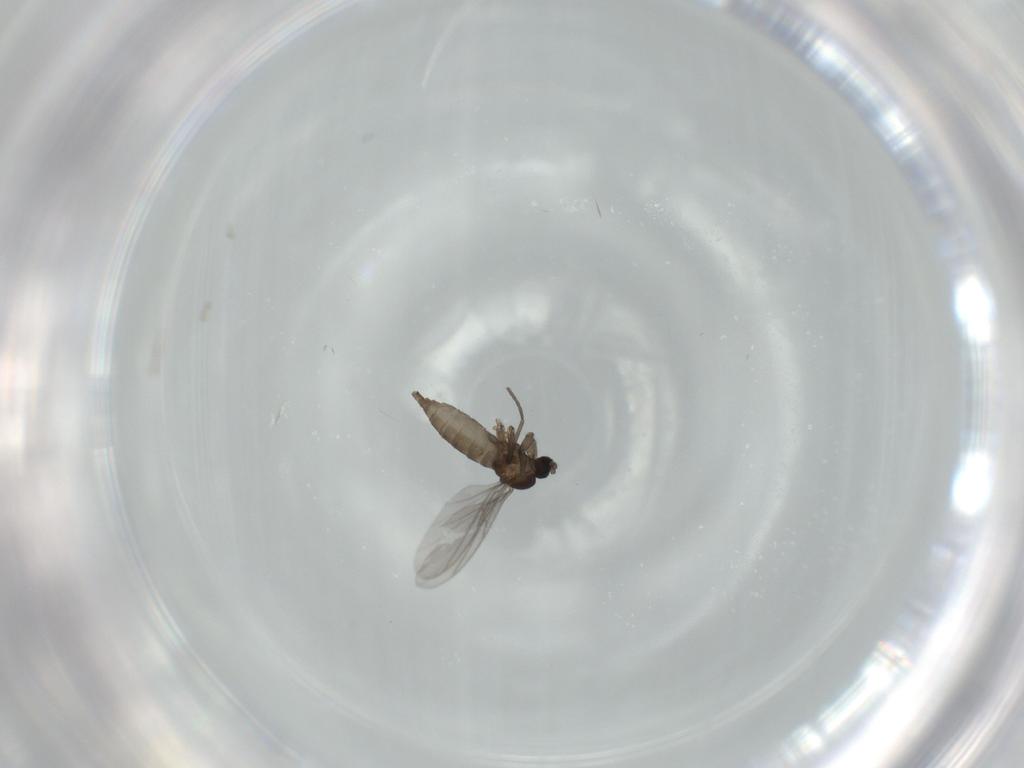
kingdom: Animalia
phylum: Arthropoda
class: Insecta
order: Diptera
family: Sciaridae
